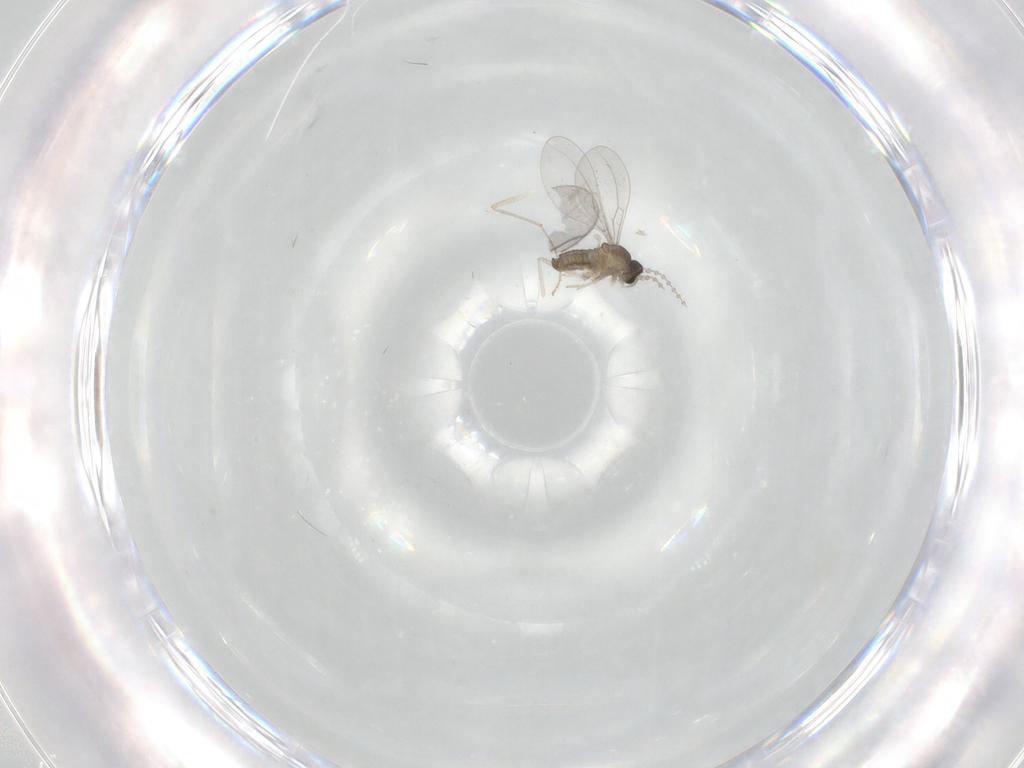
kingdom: Animalia
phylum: Arthropoda
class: Insecta
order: Diptera
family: Cecidomyiidae
